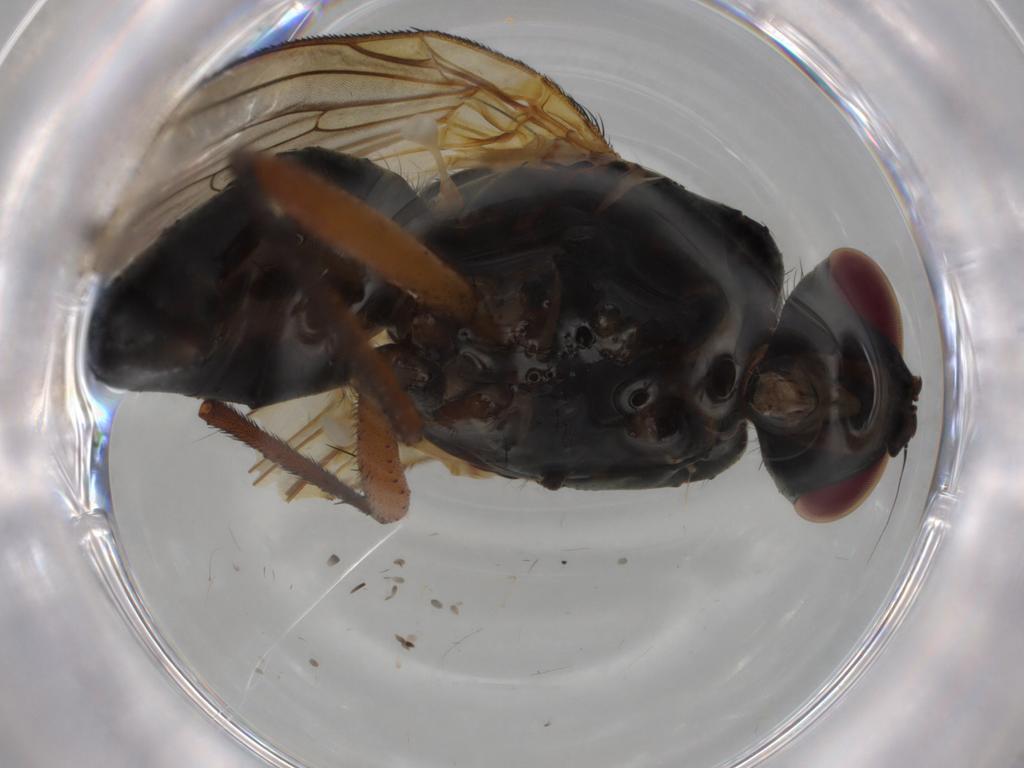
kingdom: Animalia
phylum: Arthropoda
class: Insecta
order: Diptera
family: Anthomyiidae
